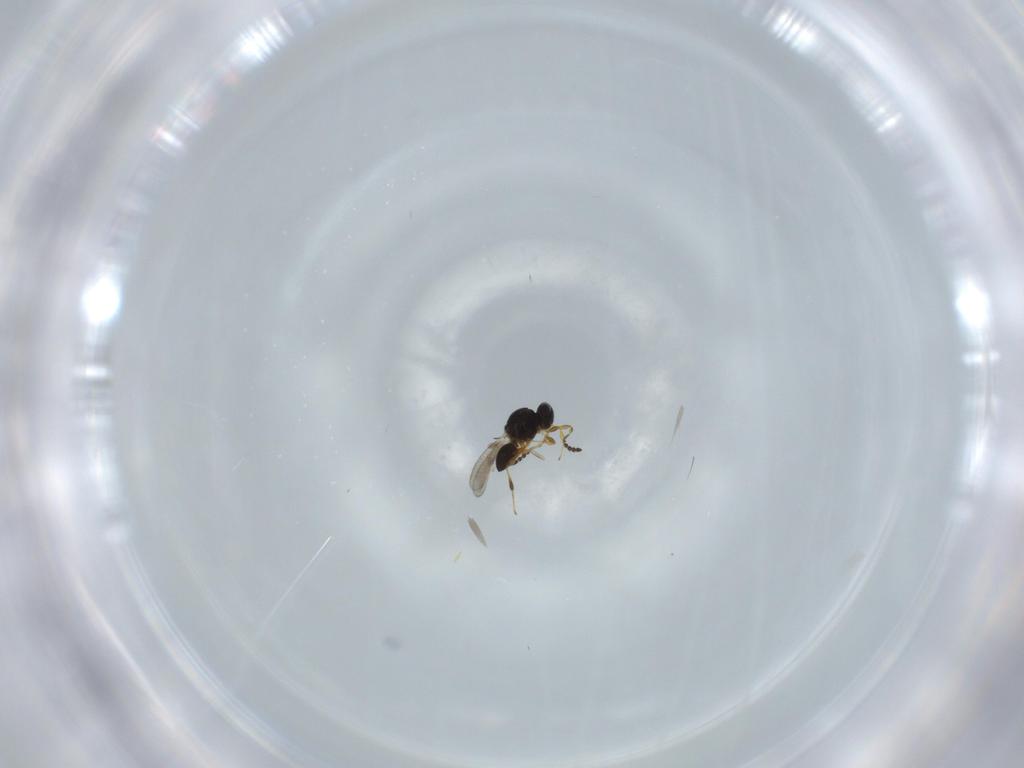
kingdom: Animalia
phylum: Arthropoda
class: Insecta
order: Hymenoptera
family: Platygastridae
